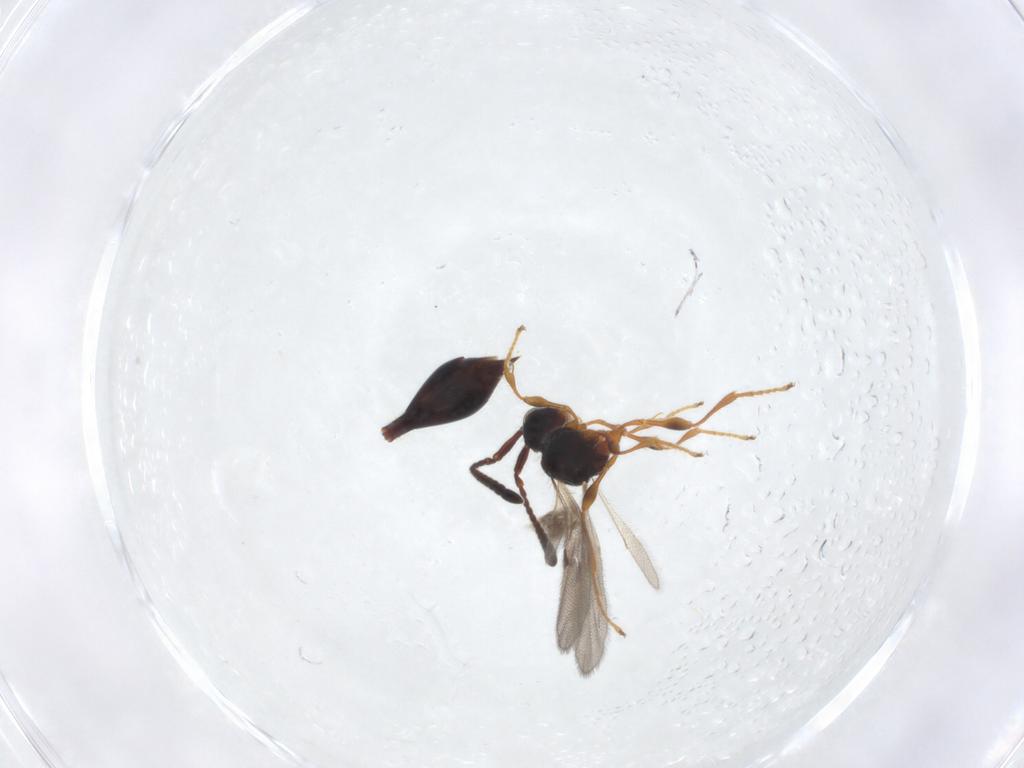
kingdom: Animalia
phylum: Arthropoda
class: Insecta
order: Hymenoptera
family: Diapriidae
